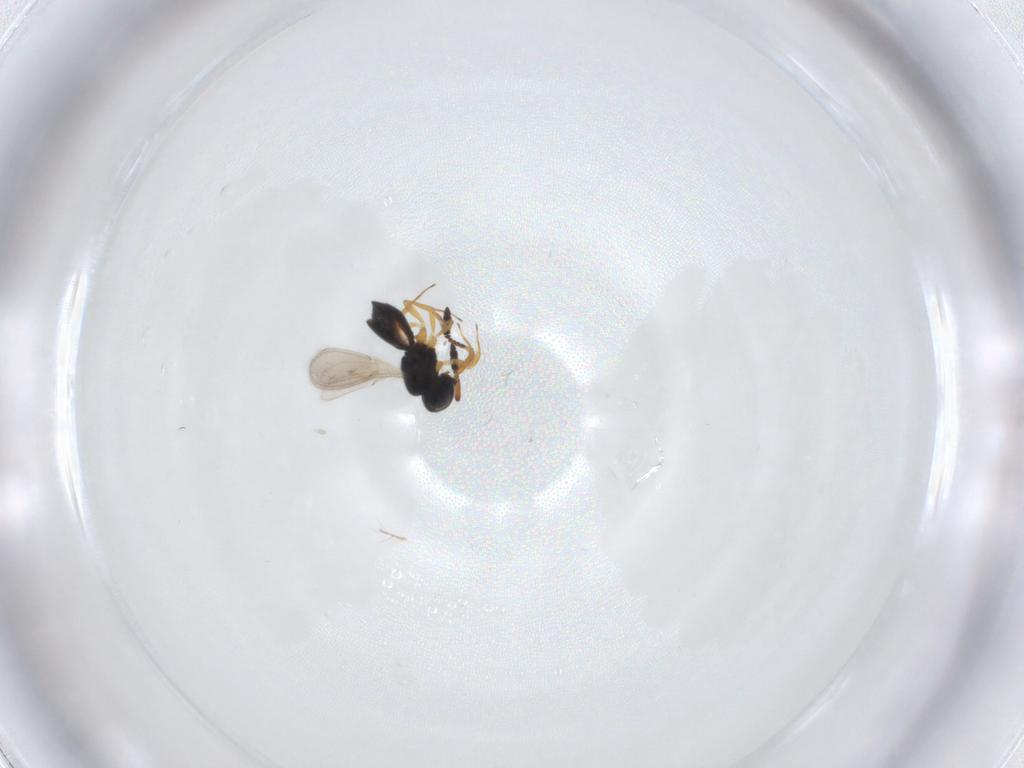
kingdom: Animalia
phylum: Arthropoda
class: Insecta
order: Hymenoptera
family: Scelionidae
